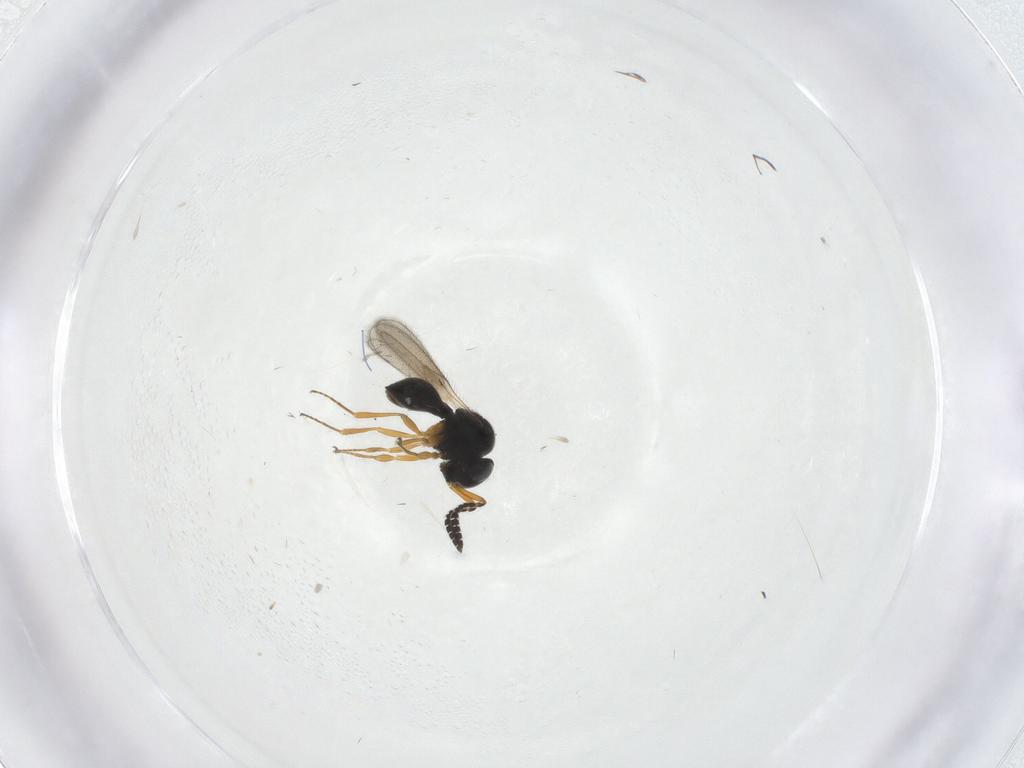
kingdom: Animalia
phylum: Arthropoda
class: Insecta
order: Hymenoptera
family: Scelionidae
